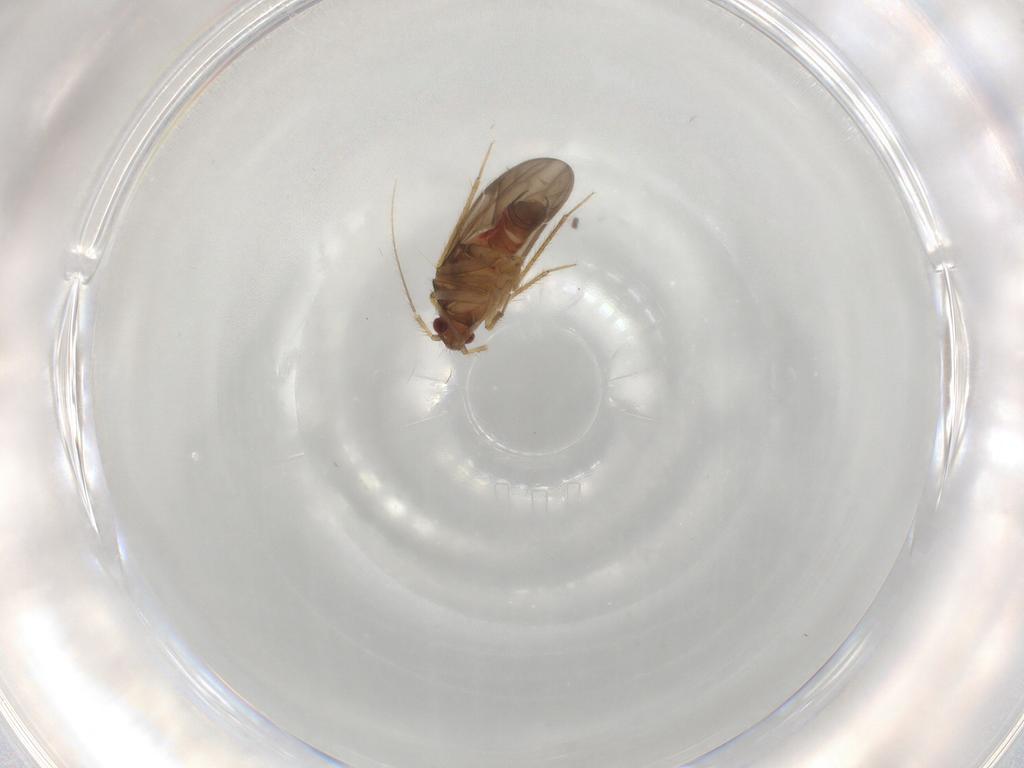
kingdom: Animalia
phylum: Arthropoda
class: Insecta
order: Hemiptera
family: Ceratocombidae
